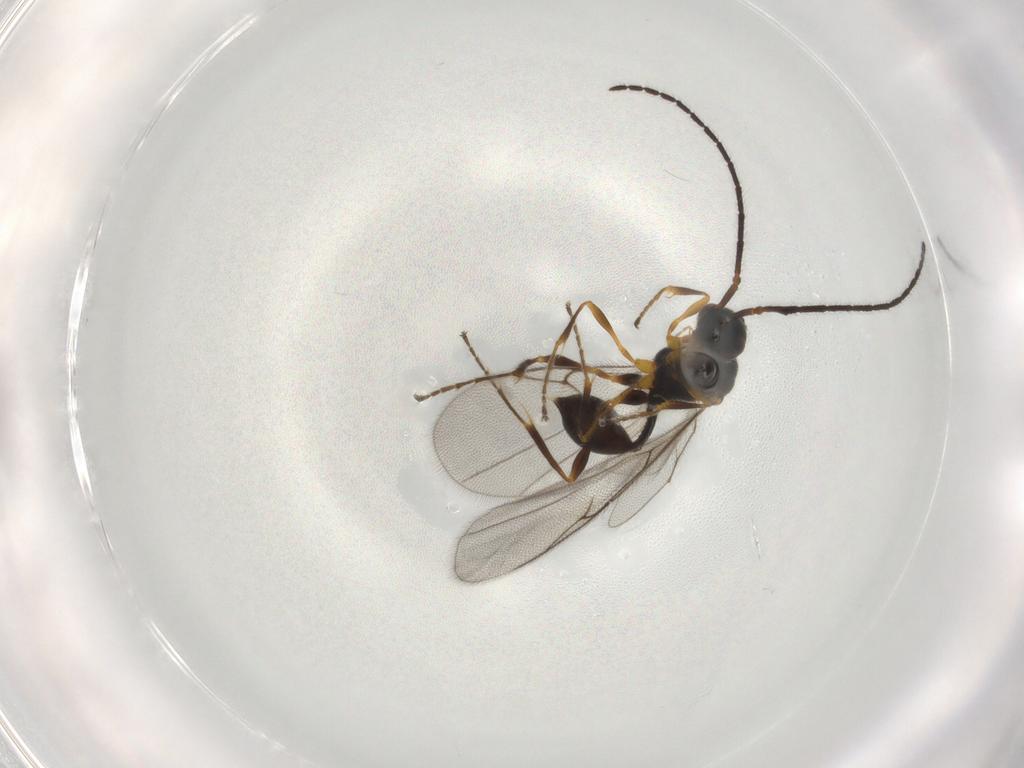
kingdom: Animalia
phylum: Arthropoda
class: Insecta
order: Hymenoptera
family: Diapriidae
